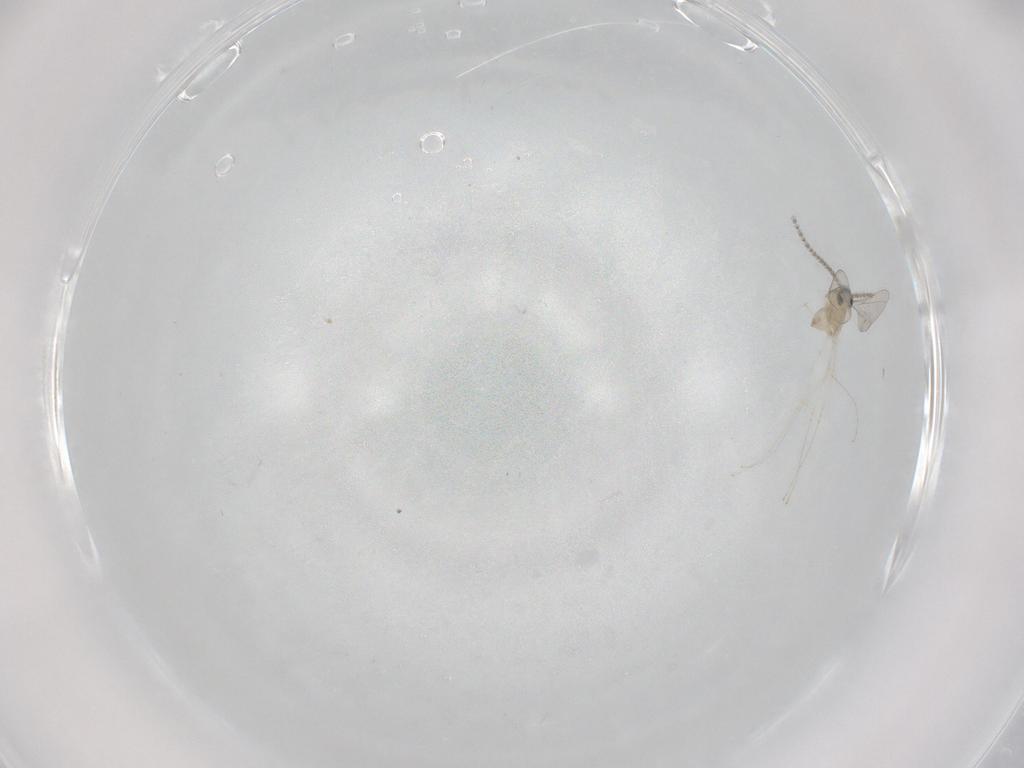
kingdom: Animalia
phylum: Arthropoda
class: Insecta
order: Diptera
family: Cecidomyiidae
